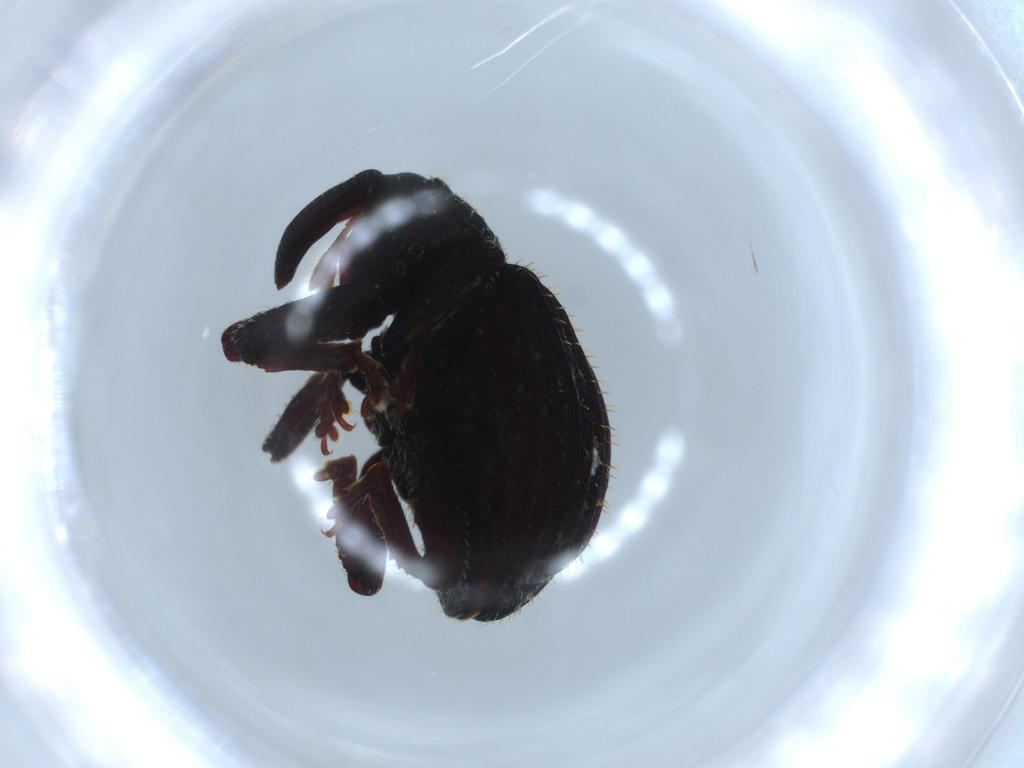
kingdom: Animalia
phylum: Arthropoda
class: Insecta
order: Coleoptera
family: Curculionidae
